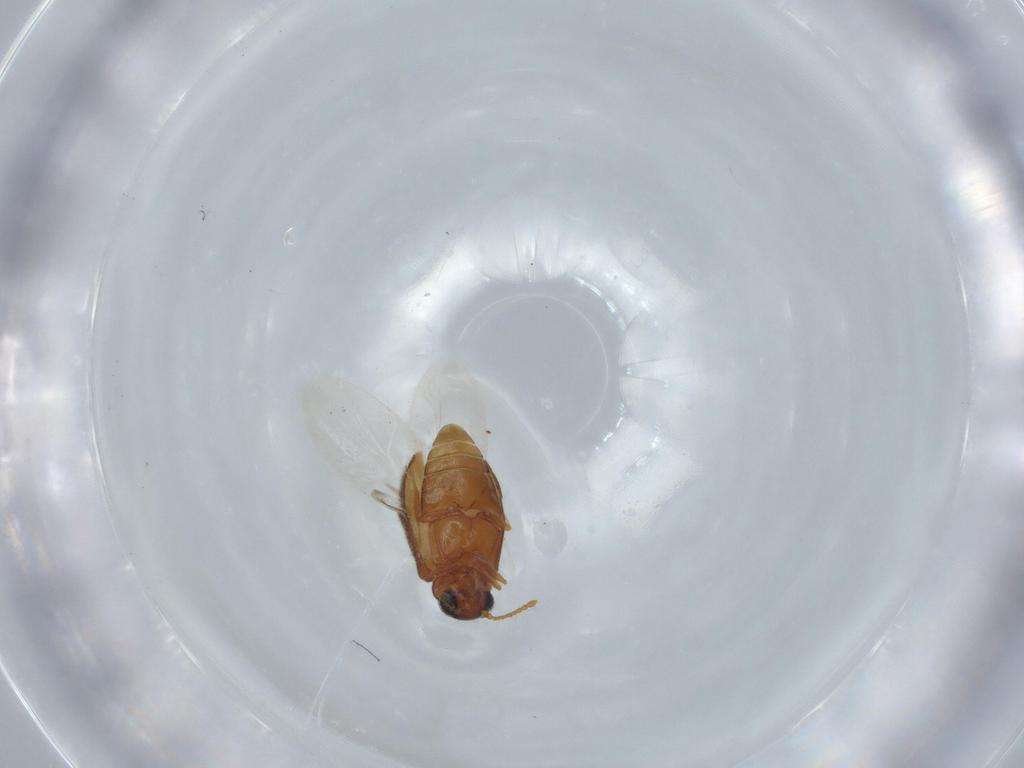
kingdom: Animalia
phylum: Arthropoda
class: Insecta
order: Coleoptera
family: Aderidae
